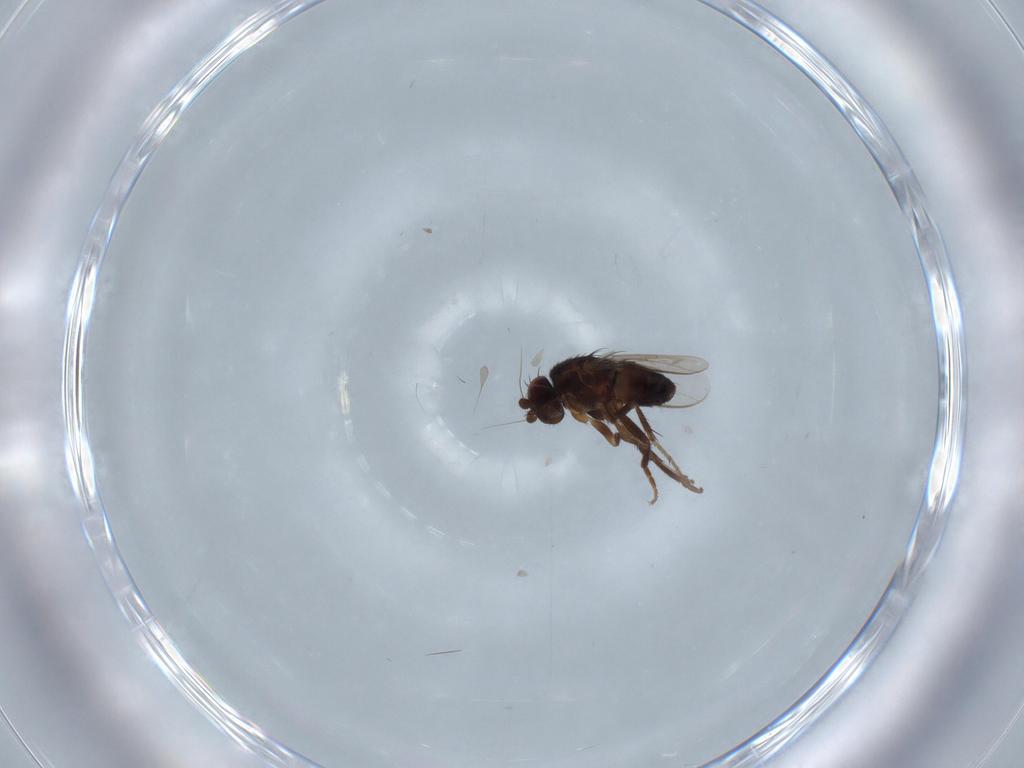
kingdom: Animalia
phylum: Arthropoda
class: Insecta
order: Diptera
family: Sphaeroceridae
